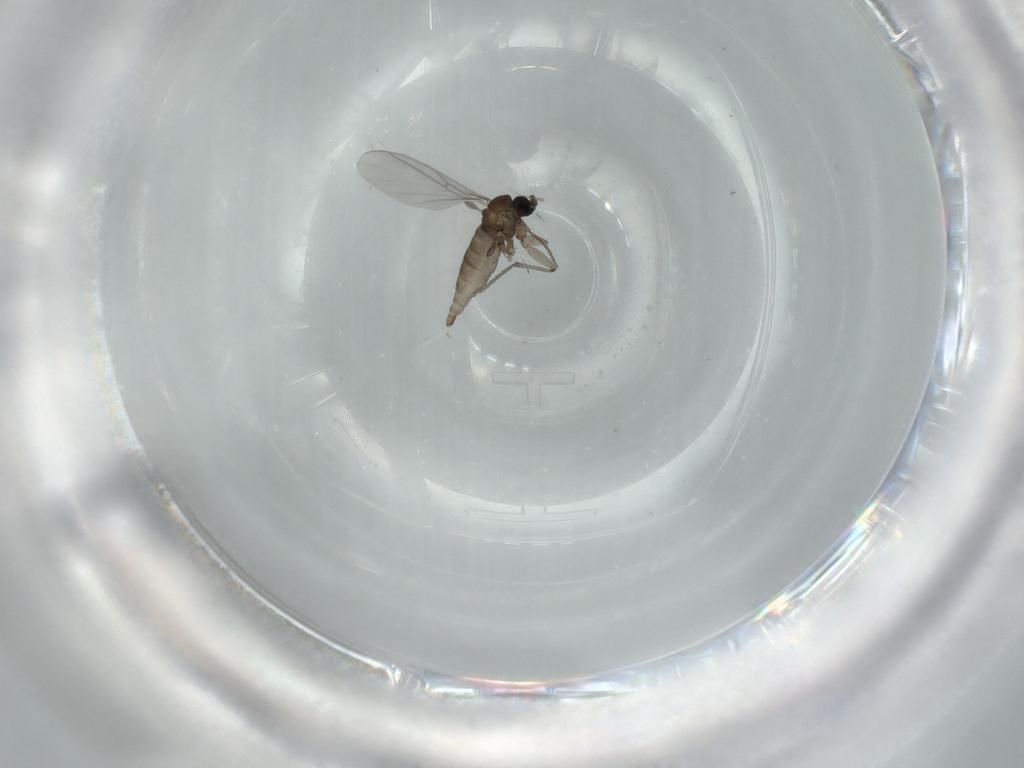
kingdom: Animalia
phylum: Arthropoda
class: Insecta
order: Diptera
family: Sciaridae
